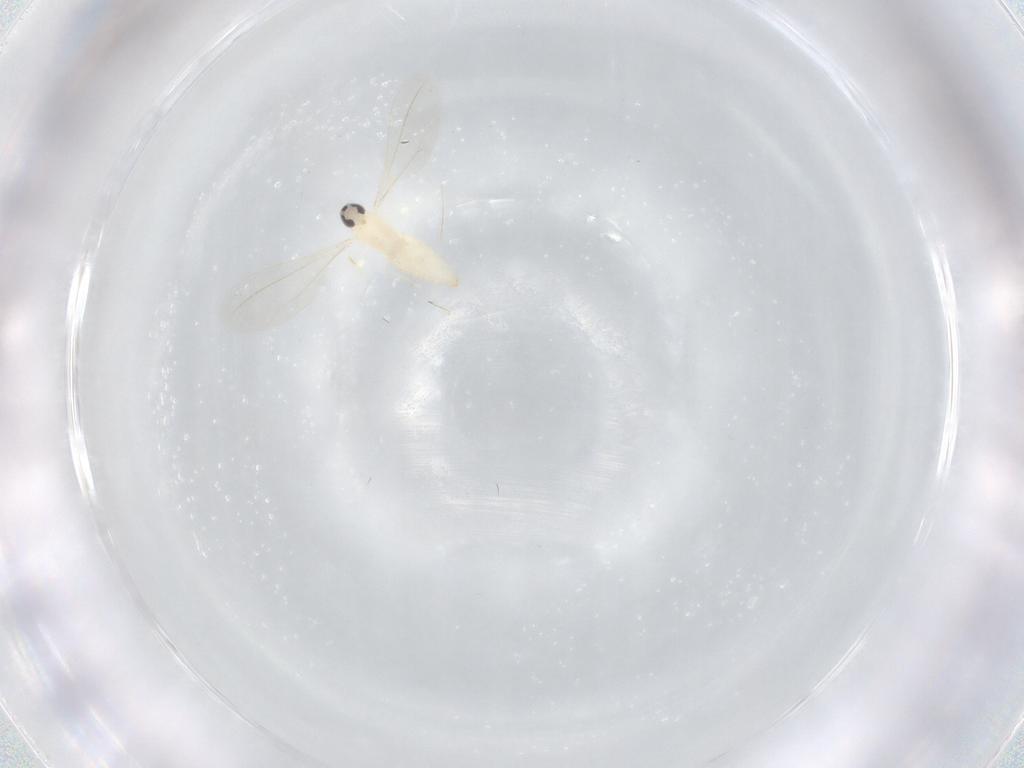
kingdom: Animalia
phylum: Arthropoda
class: Insecta
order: Diptera
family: Cecidomyiidae
